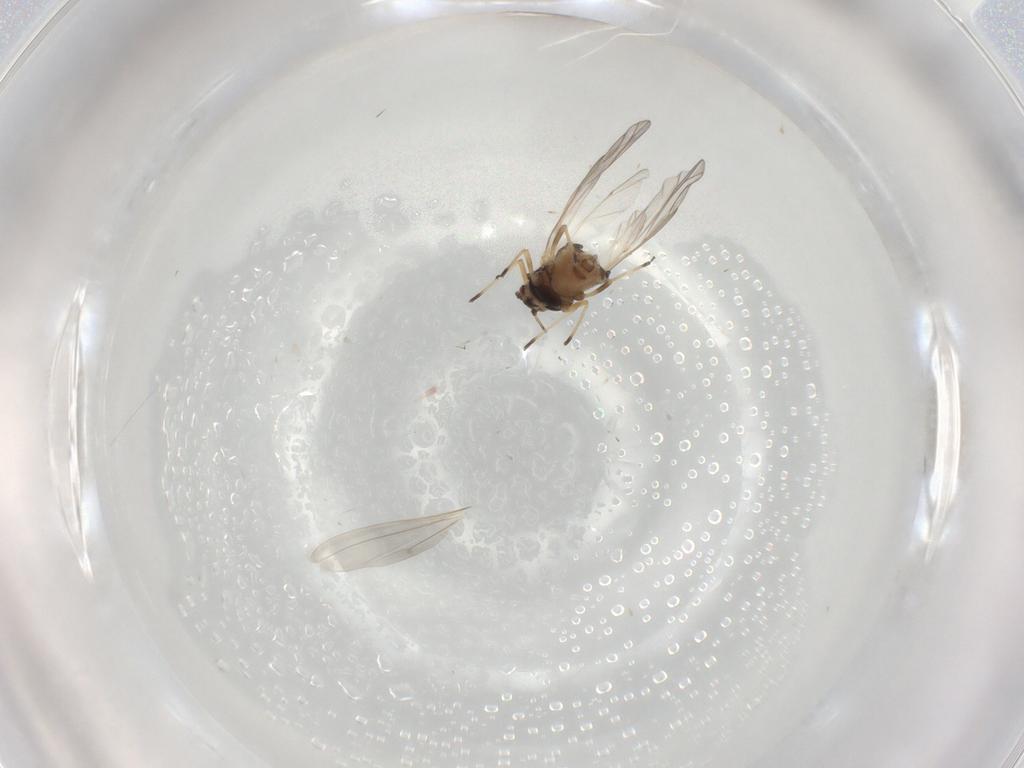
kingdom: Animalia
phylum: Arthropoda
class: Insecta
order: Hemiptera
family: Aphididae
